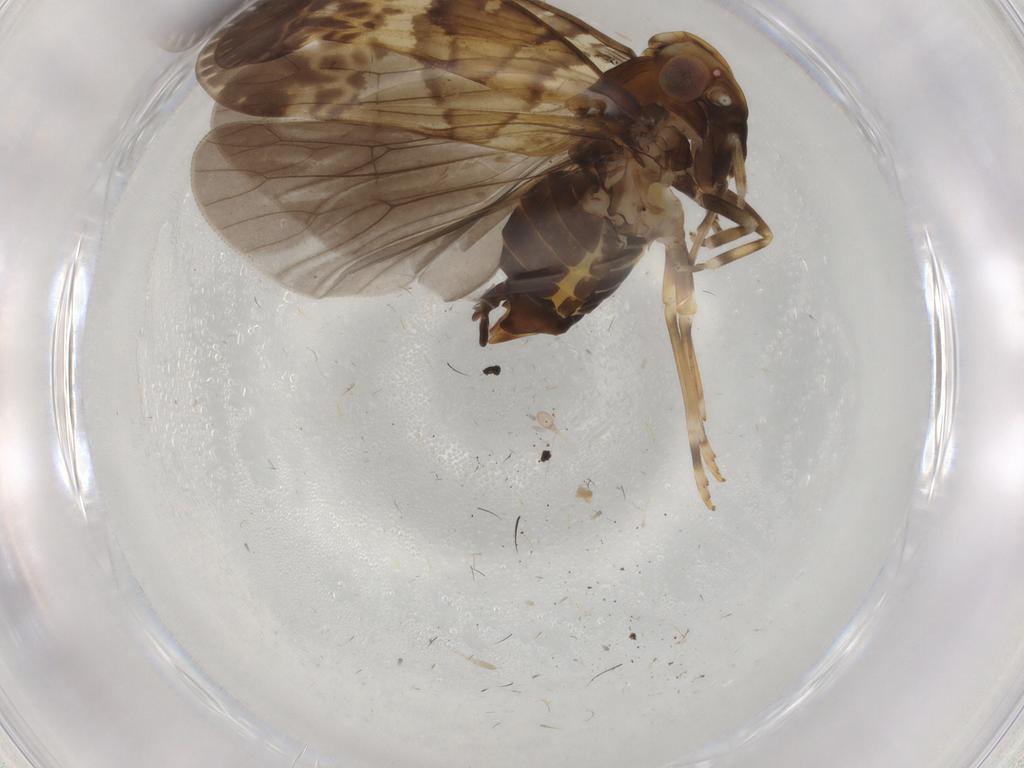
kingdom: Animalia
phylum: Arthropoda
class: Insecta
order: Hemiptera
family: Cixiidae
